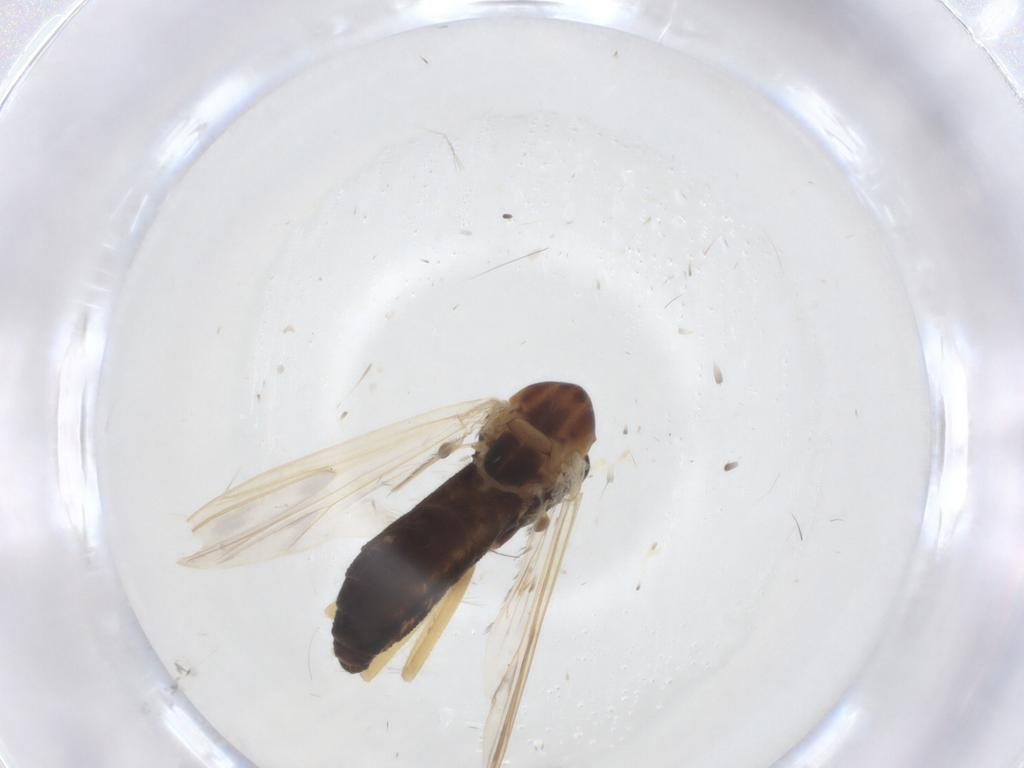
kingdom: Animalia
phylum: Arthropoda
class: Insecta
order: Diptera
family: Chironomidae
